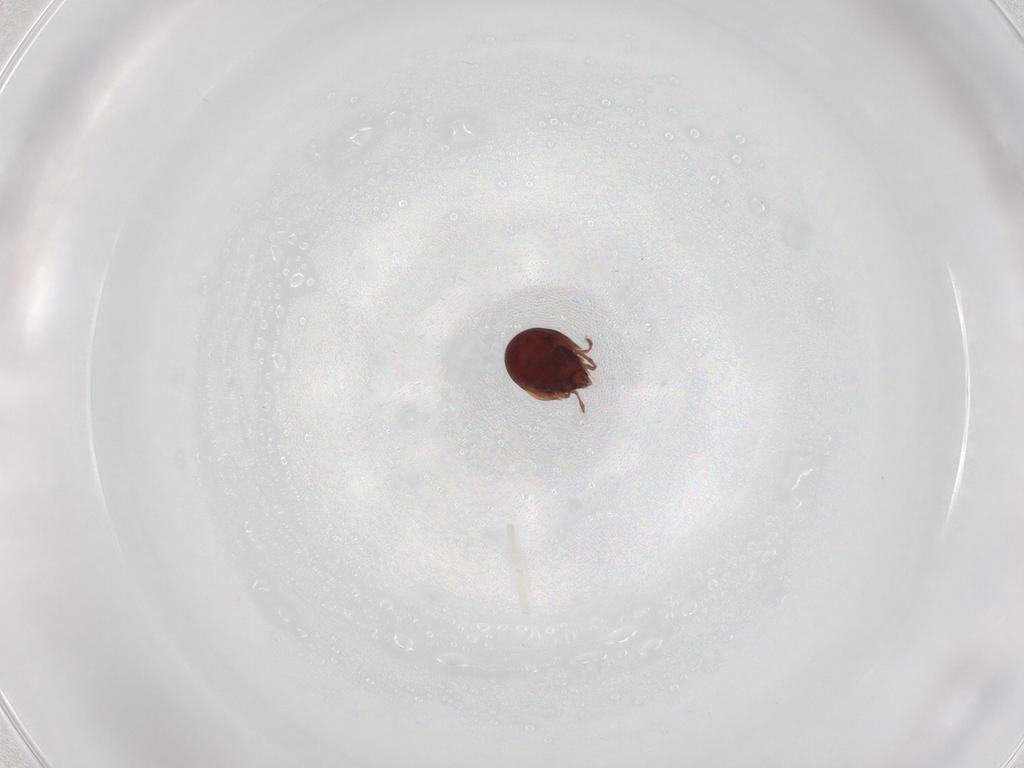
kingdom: Animalia
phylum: Arthropoda
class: Arachnida
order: Sarcoptiformes
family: Ceratozetidae
